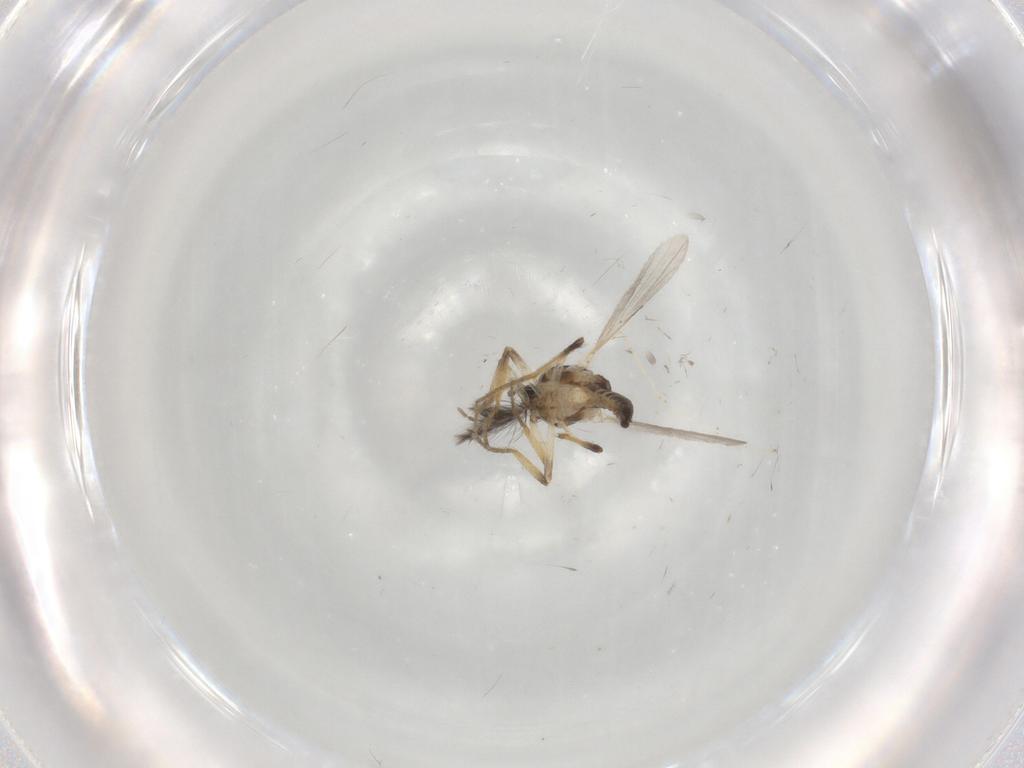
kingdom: Animalia
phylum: Arthropoda
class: Insecta
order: Diptera
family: Ceratopogonidae
